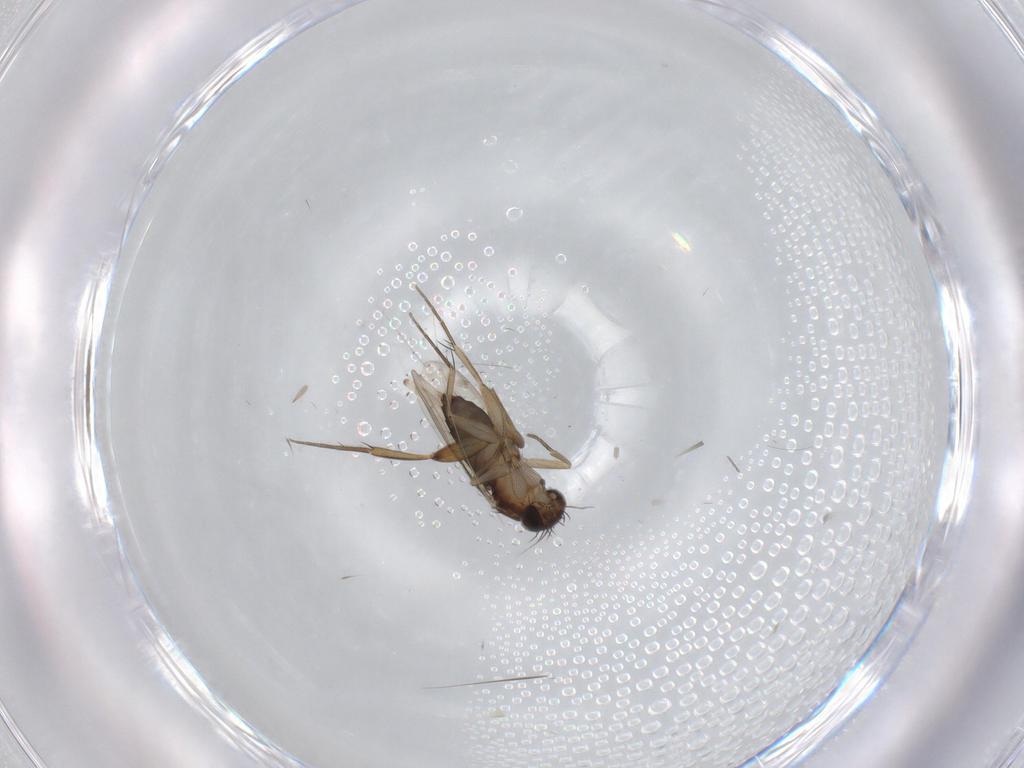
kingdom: Animalia
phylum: Arthropoda
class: Insecta
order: Diptera
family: Phoridae
